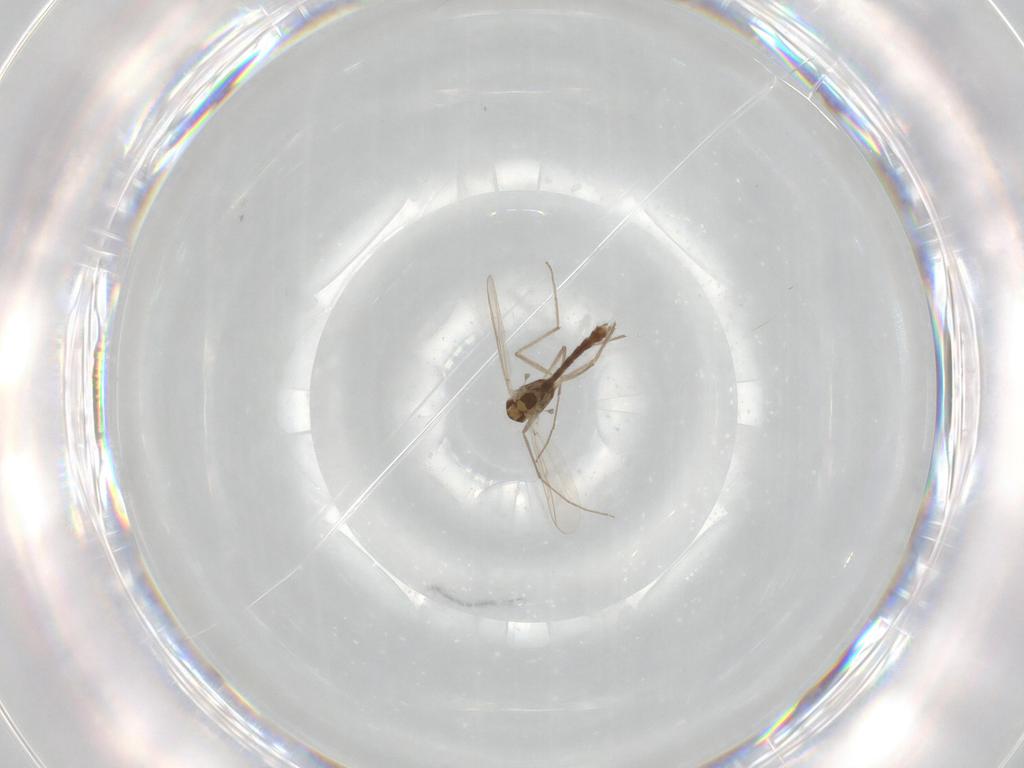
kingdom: Animalia
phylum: Arthropoda
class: Insecta
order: Diptera
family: Chironomidae
